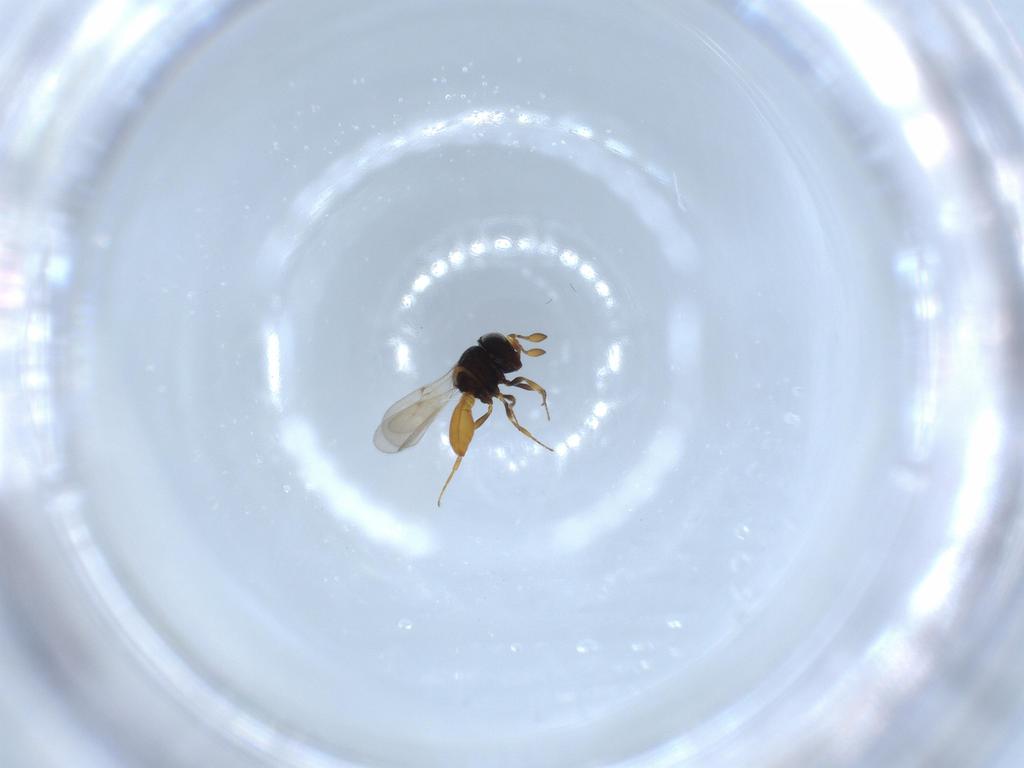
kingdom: Animalia
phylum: Arthropoda
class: Insecta
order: Hymenoptera
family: Scelionidae
